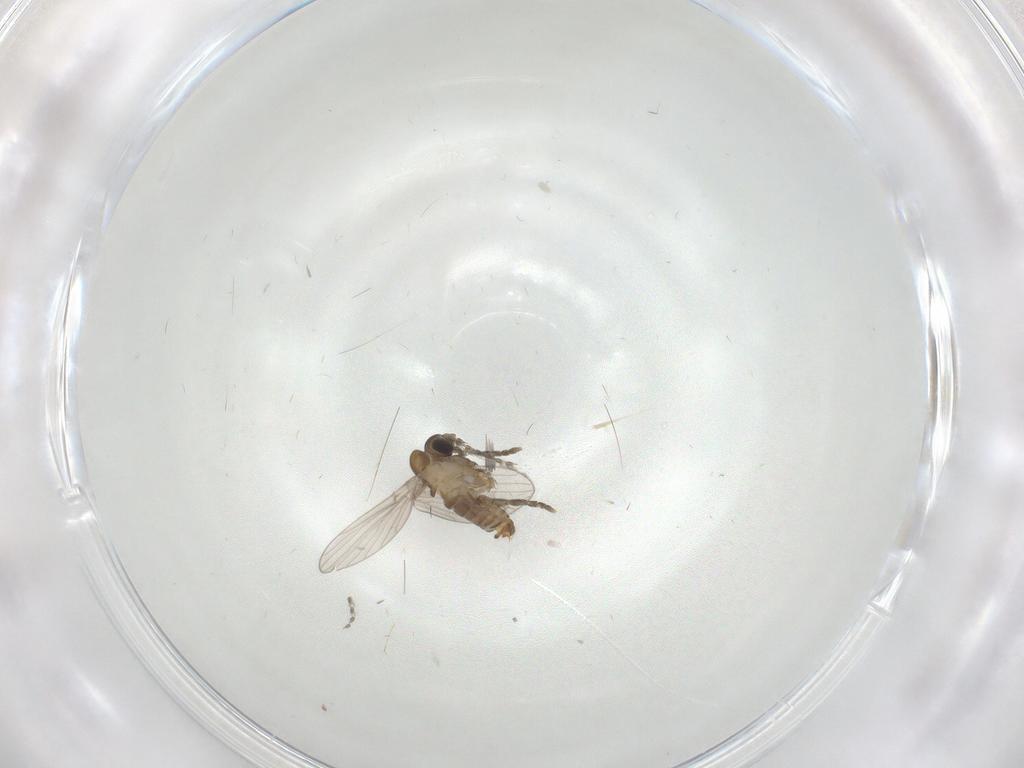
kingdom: Animalia
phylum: Arthropoda
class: Insecta
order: Diptera
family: Psychodidae
